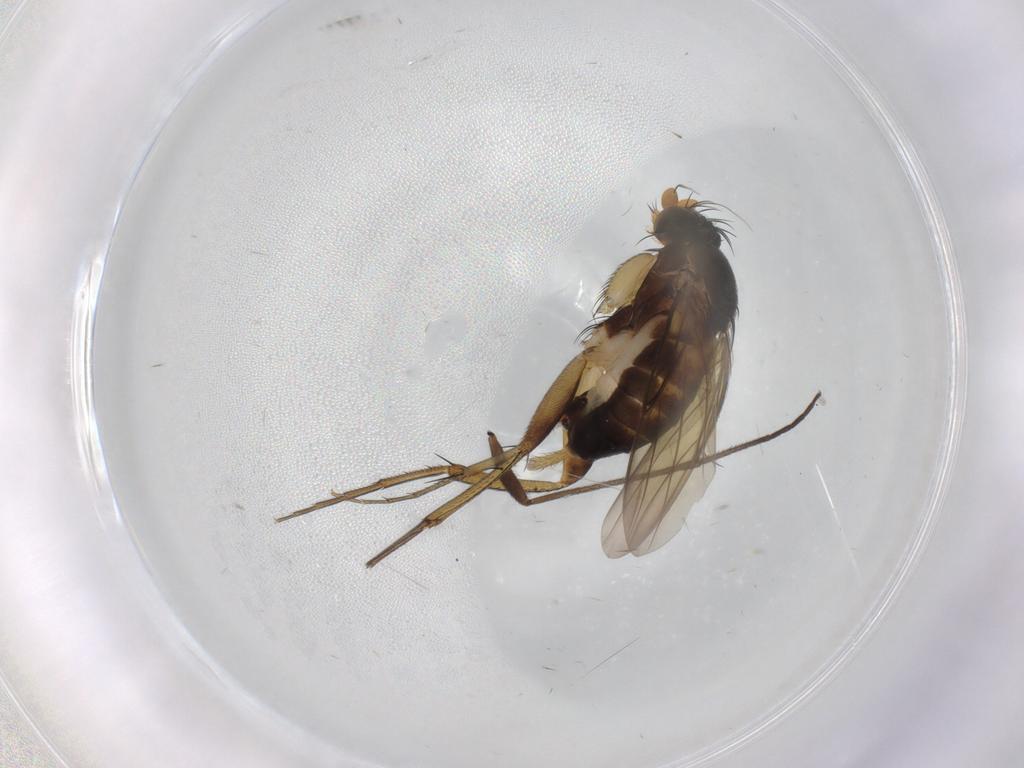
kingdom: Animalia
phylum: Arthropoda
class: Insecta
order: Diptera
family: Phoridae
